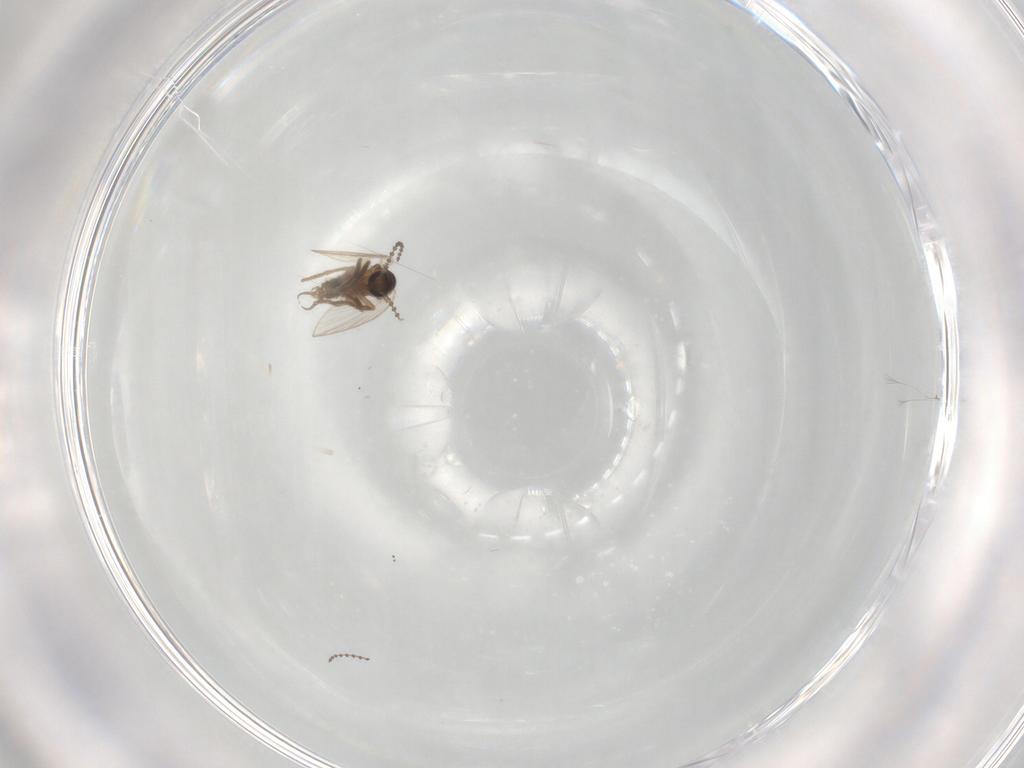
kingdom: Animalia
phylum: Arthropoda
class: Insecta
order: Diptera
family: Psychodidae
